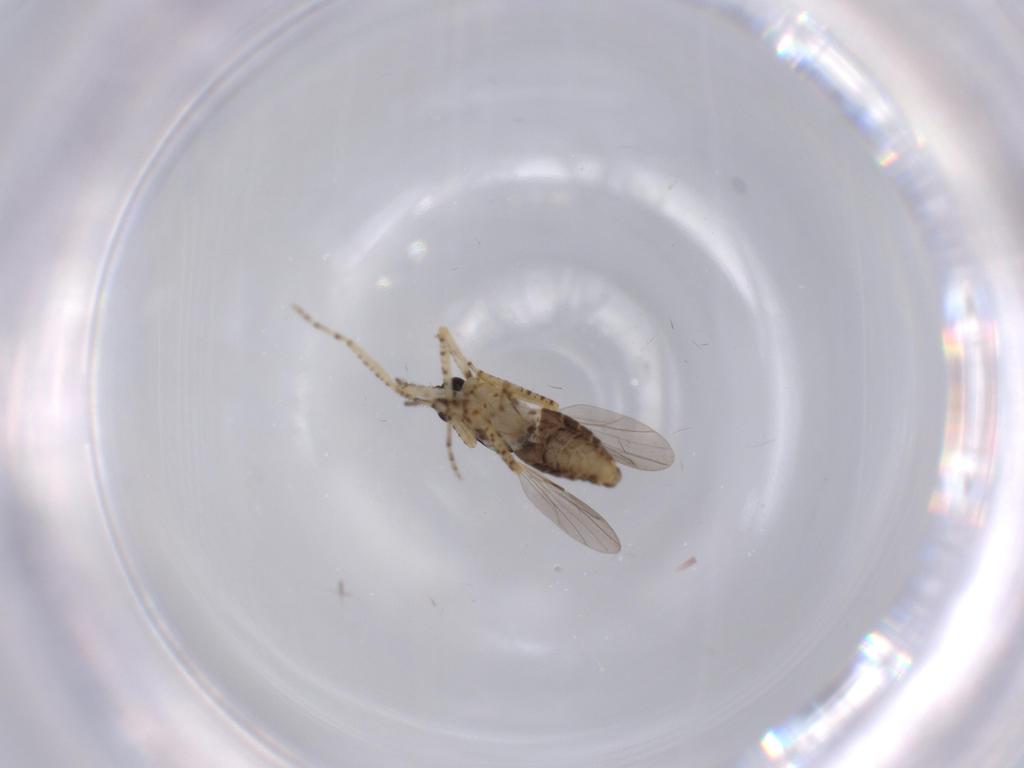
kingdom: Animalia
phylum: Arthropoda
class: Insecta
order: Diptera
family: Ceratopogonidae
